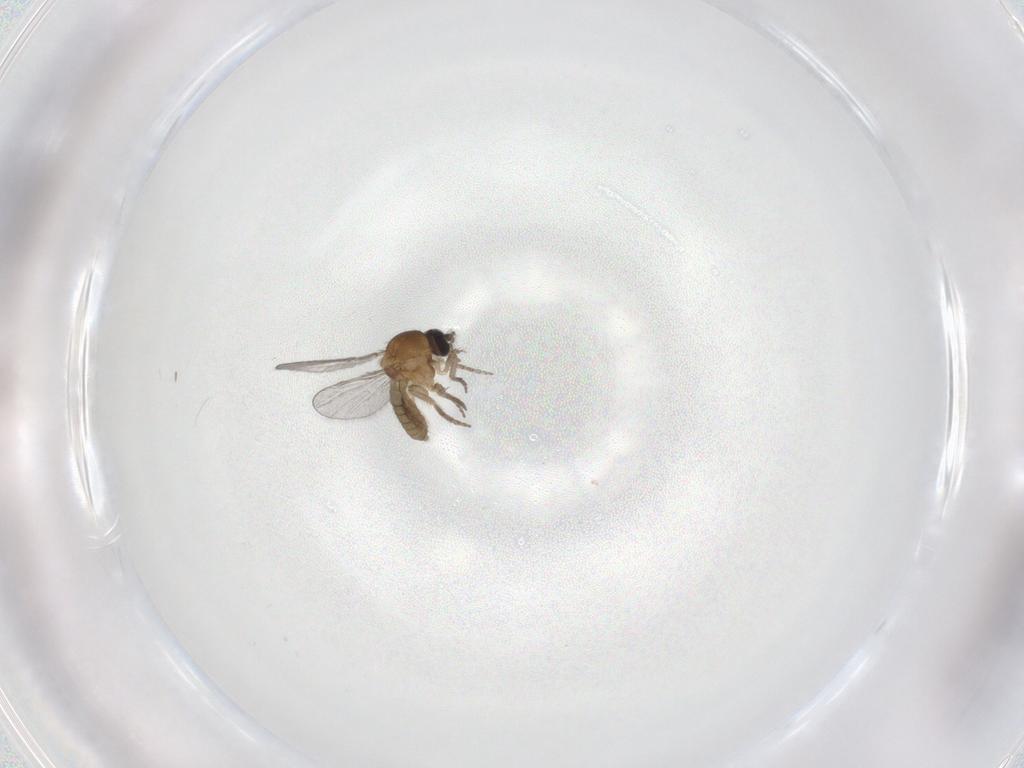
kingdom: Animalia
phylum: Arthropoda
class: Insecta
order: Diptera
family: Ceratopogonidae
